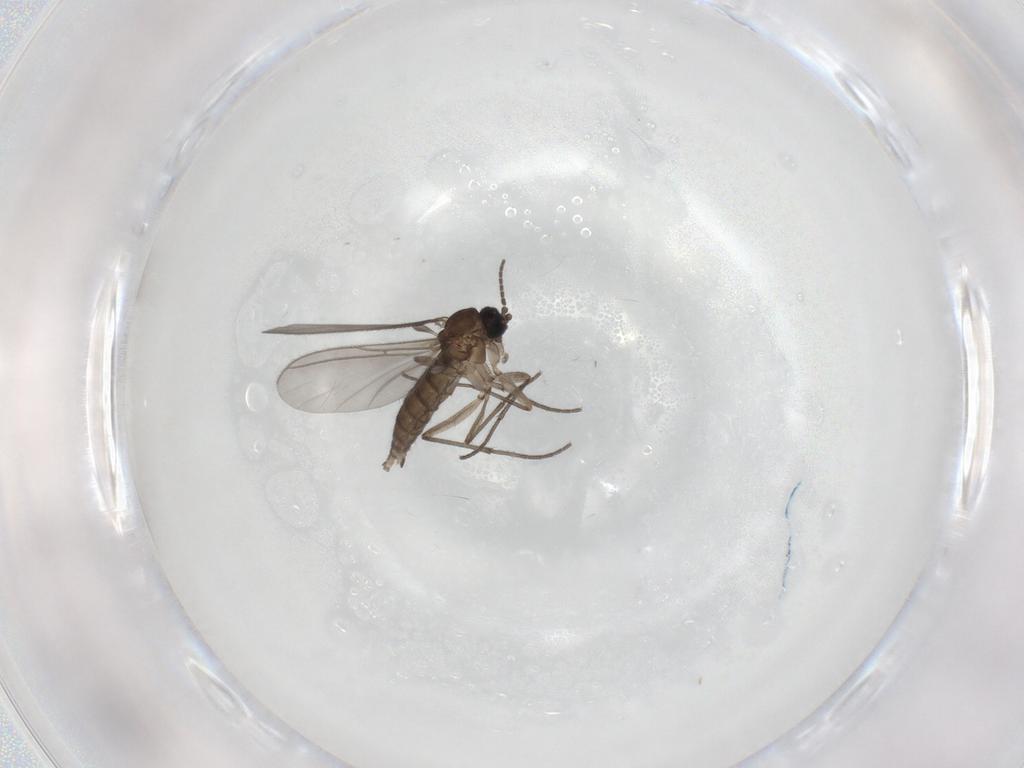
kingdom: Animalia
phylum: Arthropoda
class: Insecta
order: Diptera
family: Sciaridae
